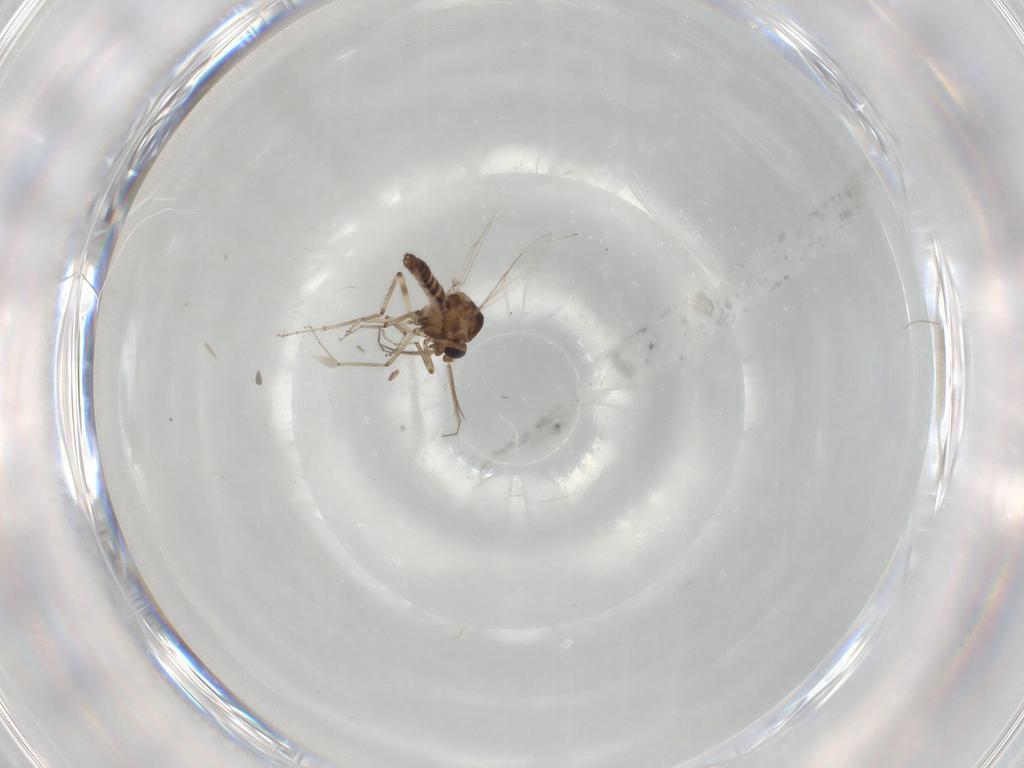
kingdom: Animalia
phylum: Arthropoda
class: Insecta
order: Diptera
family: Ceratopogonidae
